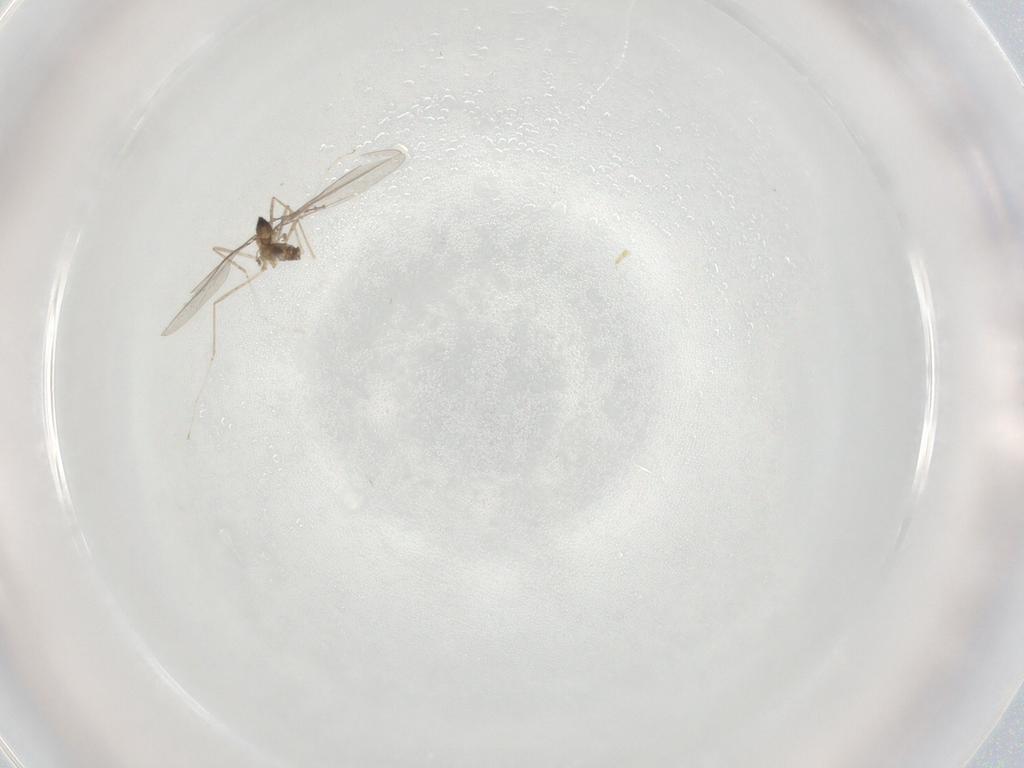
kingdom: Animalia
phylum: Arthropoda
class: Insecta
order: Diptera
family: Cecidomyiidae
